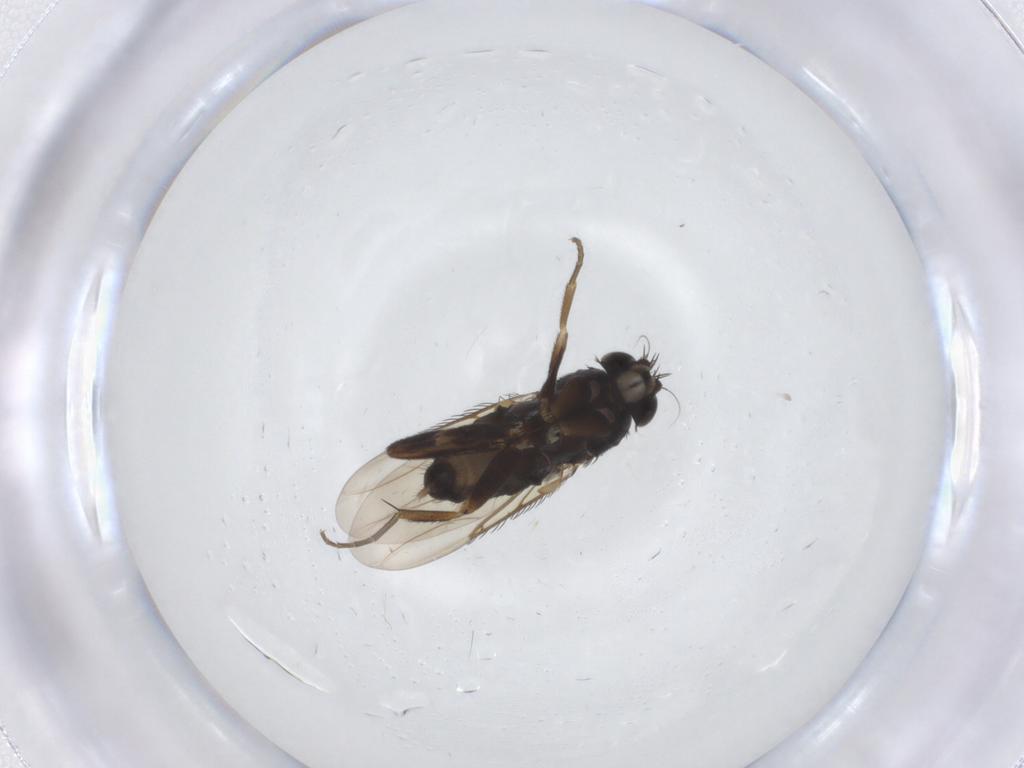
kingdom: Animalia
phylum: Arthropoda
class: Insecta
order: Diptera
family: Phoridae
